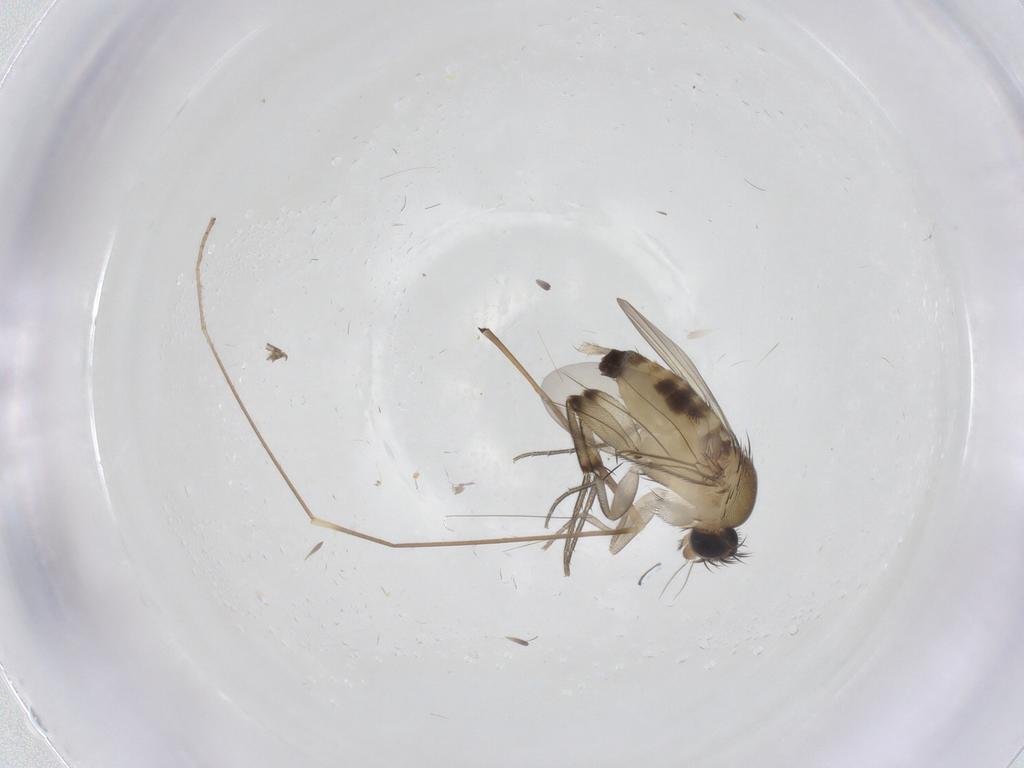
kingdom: Animalia
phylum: Arthropoda
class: Insecta
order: Diptera
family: Phoridae
